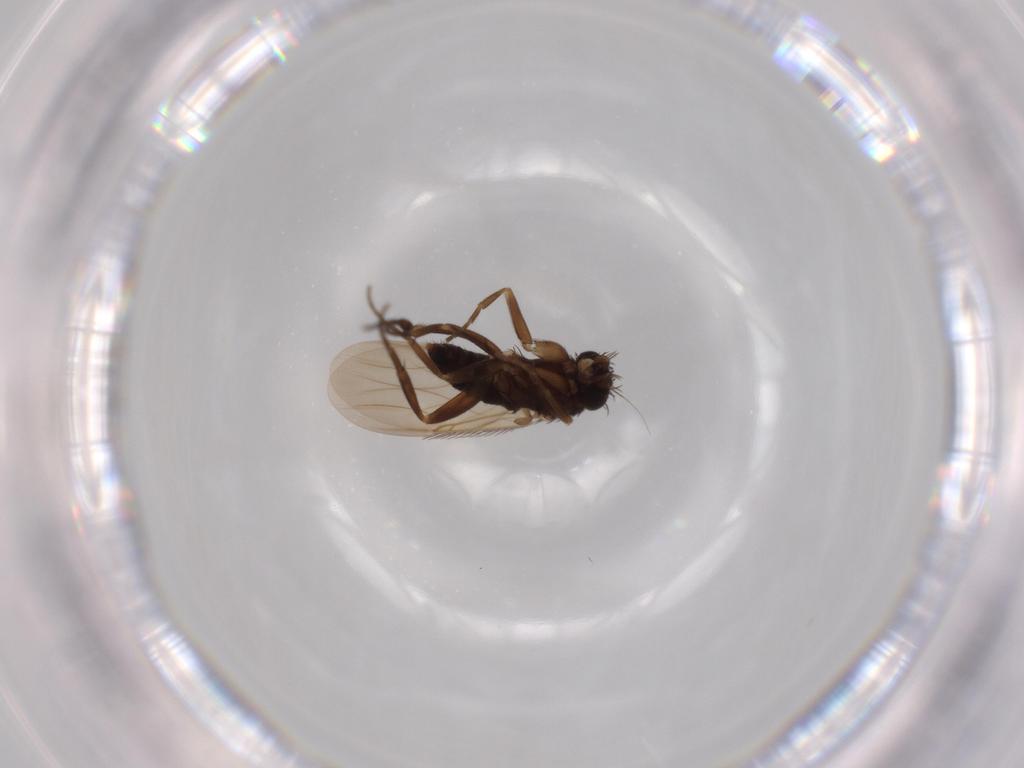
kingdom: Animalia
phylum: Arthropoda
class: Insecta
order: Diptera
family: Phoridae
